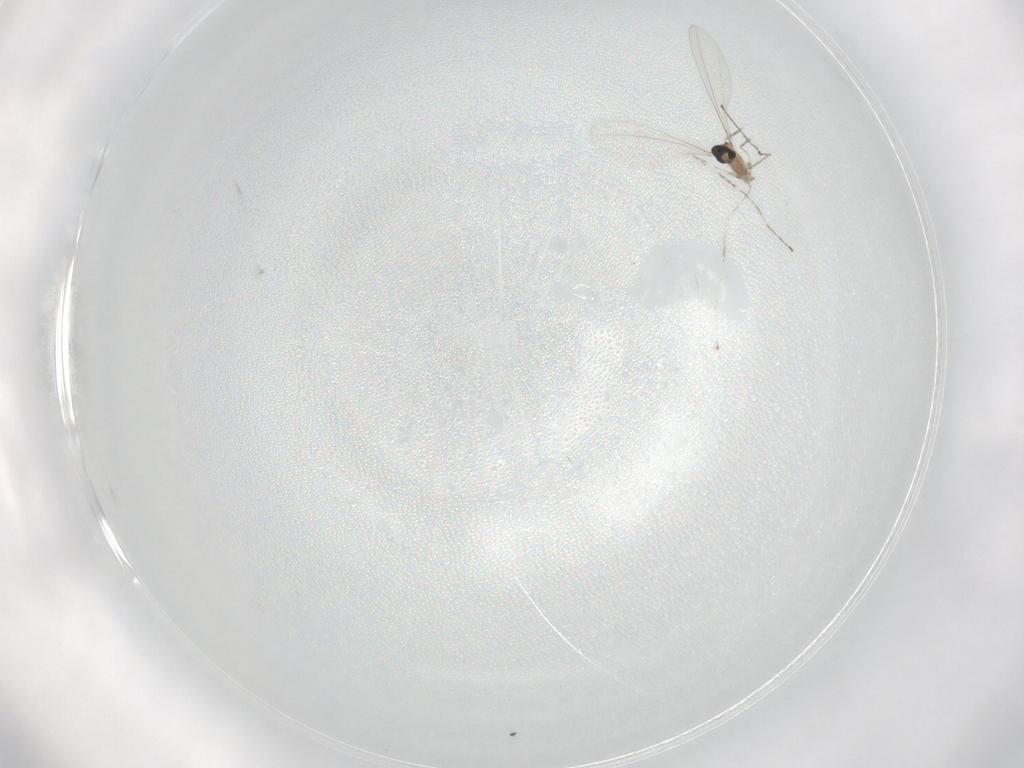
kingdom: Animalia
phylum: Arthropoda
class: Insecta
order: Diptera
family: Cecidomyiidae
